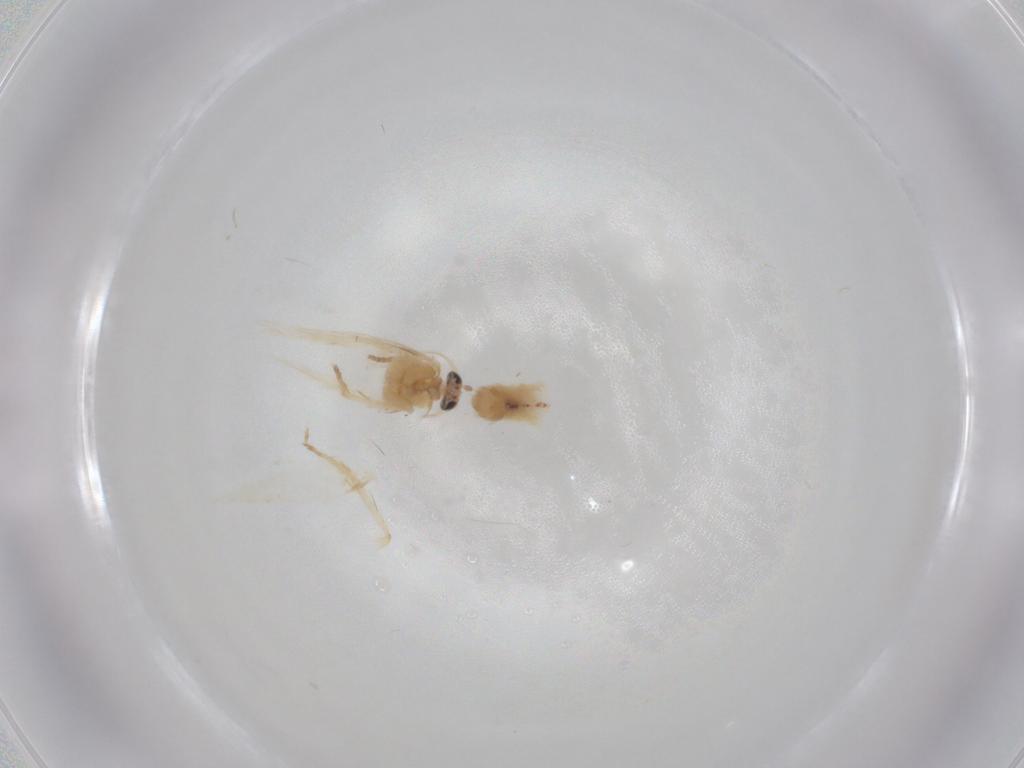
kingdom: Animalia
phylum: Arthropoda
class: Insecta
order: Lepidoptera
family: Nepticulidae
